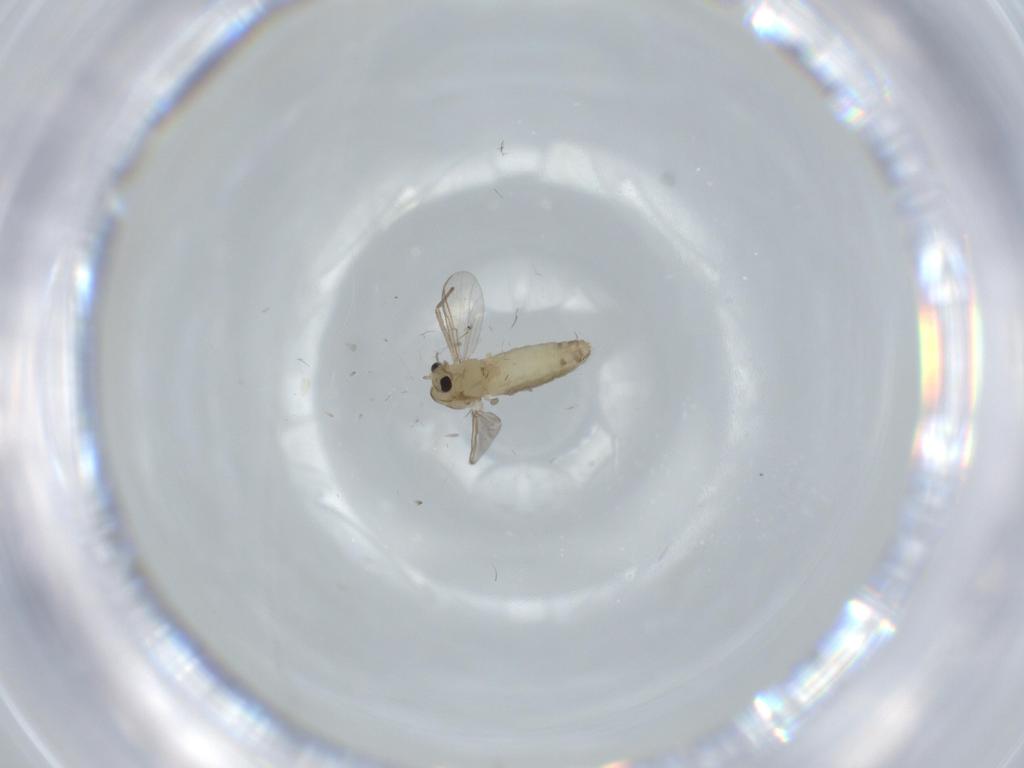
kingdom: Animalia
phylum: Arthropoda
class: Insecta
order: Diptera
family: Chironomidae
